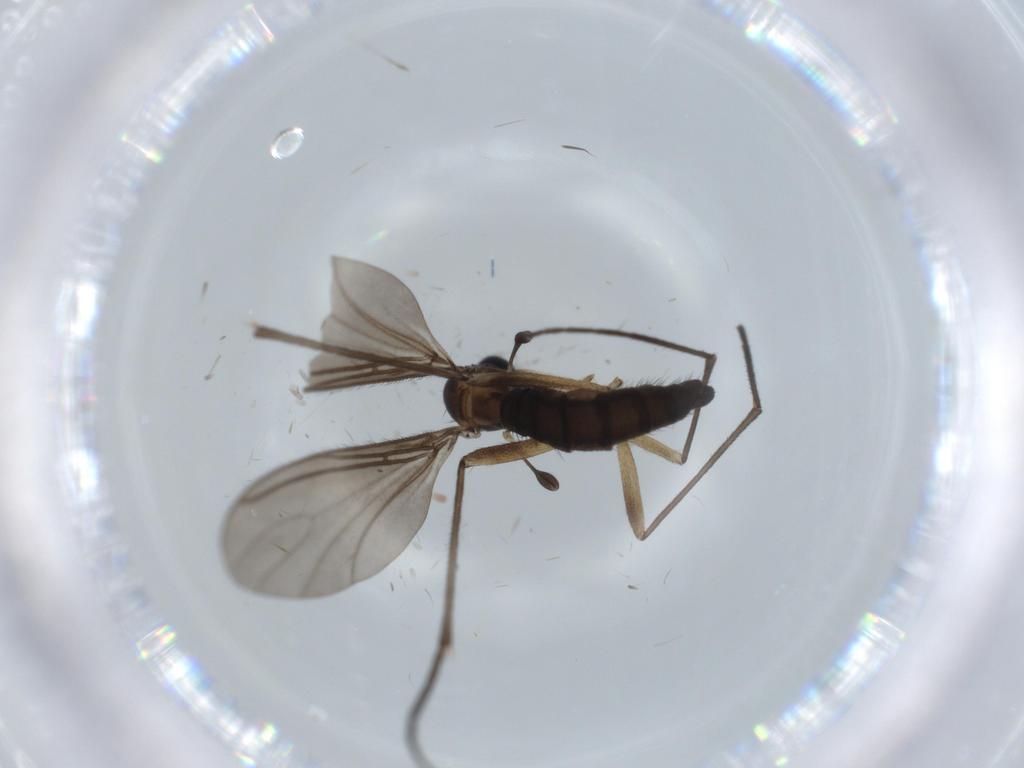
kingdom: Animalia
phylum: Arthropoda
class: Insecta
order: Diptera
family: Sciaridae
